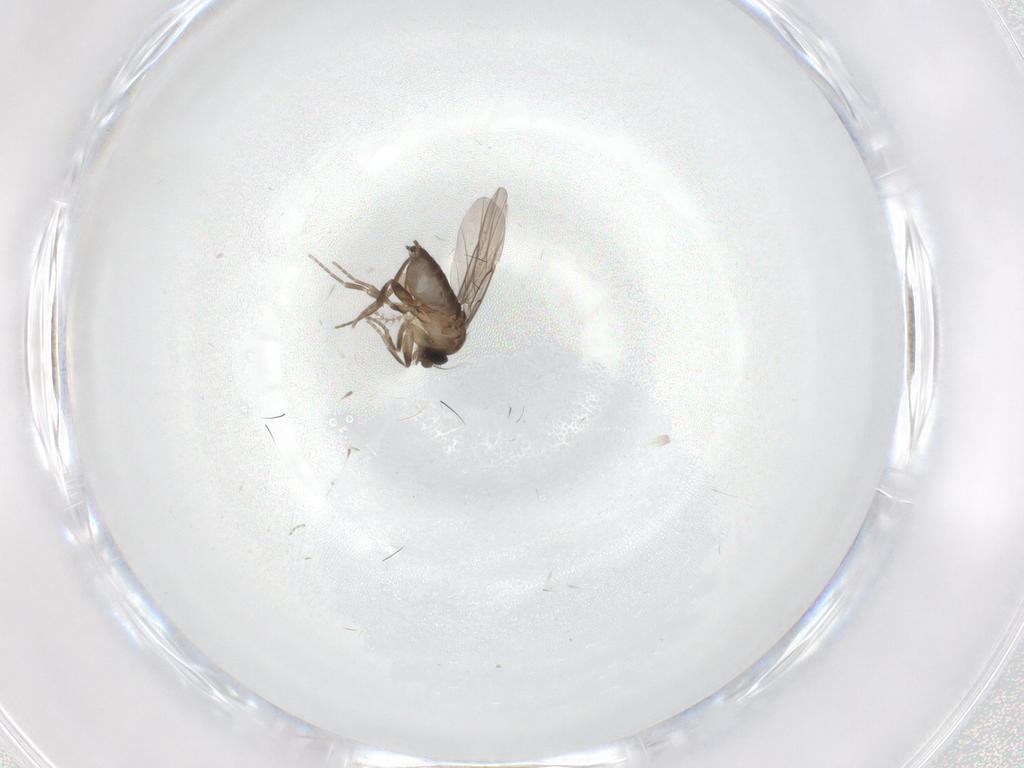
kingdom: Animalia
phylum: Arthropoda
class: Insecta
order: Diptera
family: Phoridae
